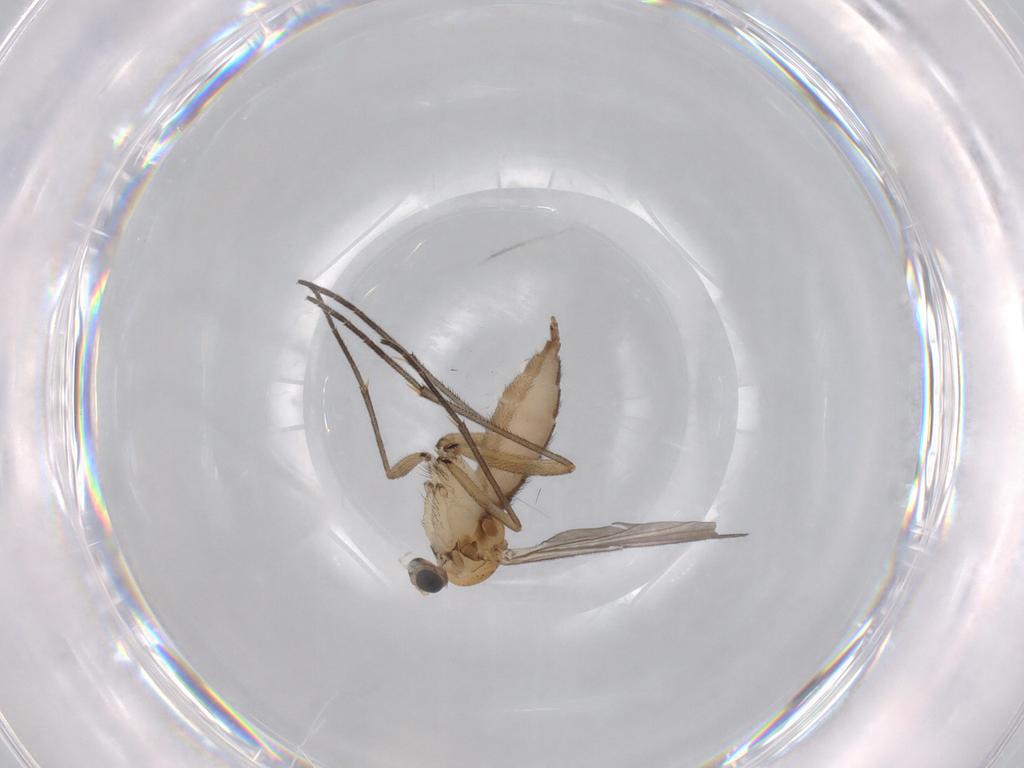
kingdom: Animalia
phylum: Arthropoda
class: Insecta
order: Diptera
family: Sciaridae
